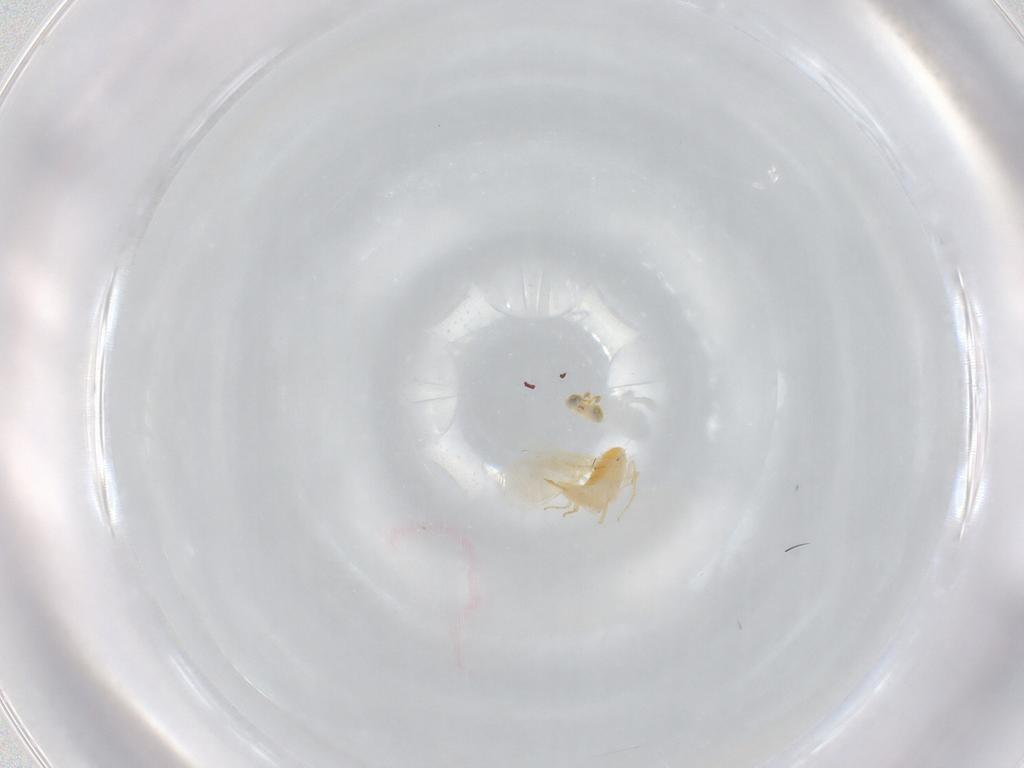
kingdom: Animalia
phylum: Arthropoda
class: Insecta
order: Hymenoptera
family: Aphelinidae
